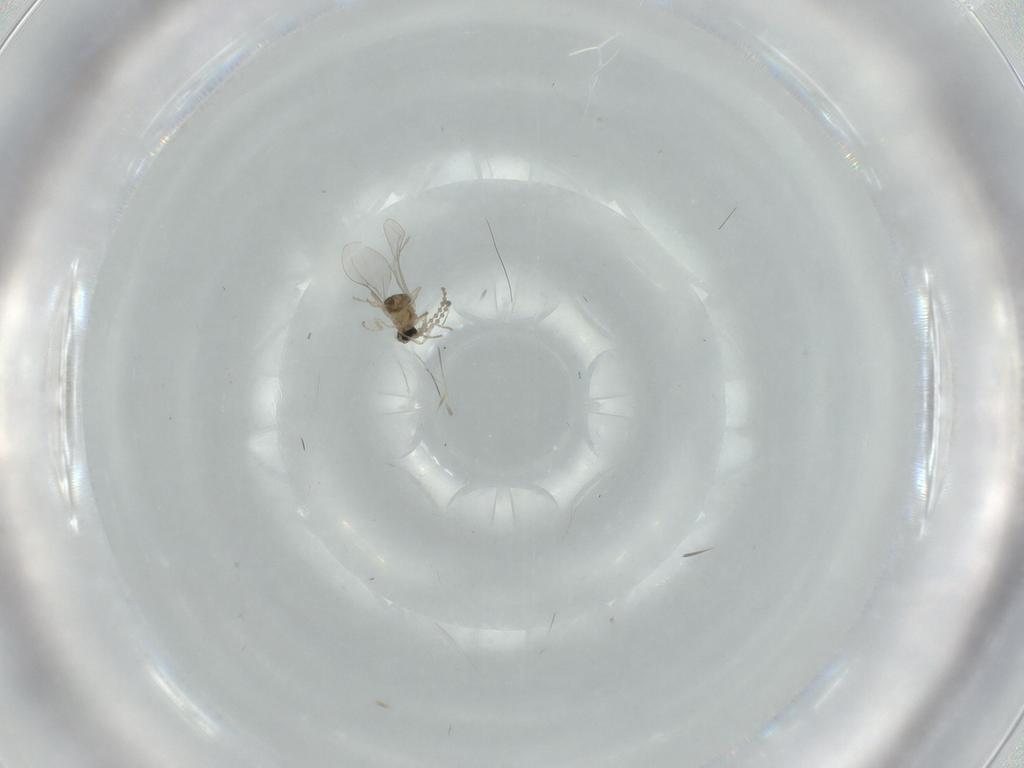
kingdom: Animalia
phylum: Arthropoda
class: Insecta
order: Diptera
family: Cecidomyiidae
